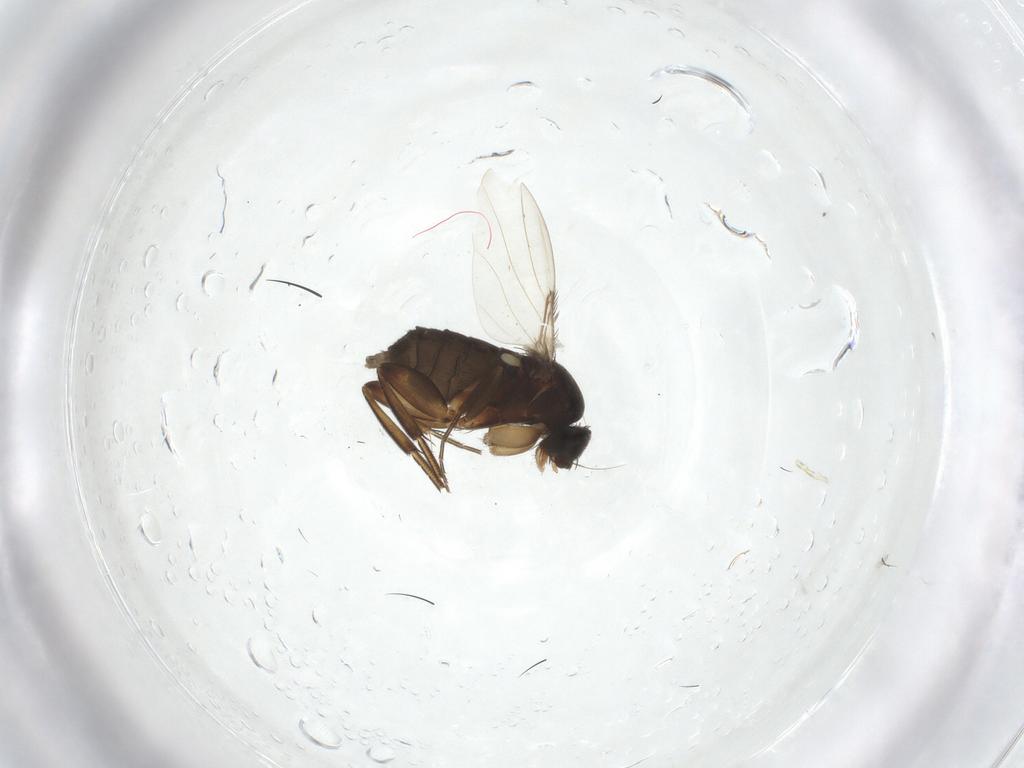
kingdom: Animalia
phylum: Arthropoda
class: Insecta
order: Diptera
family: Phoridae
